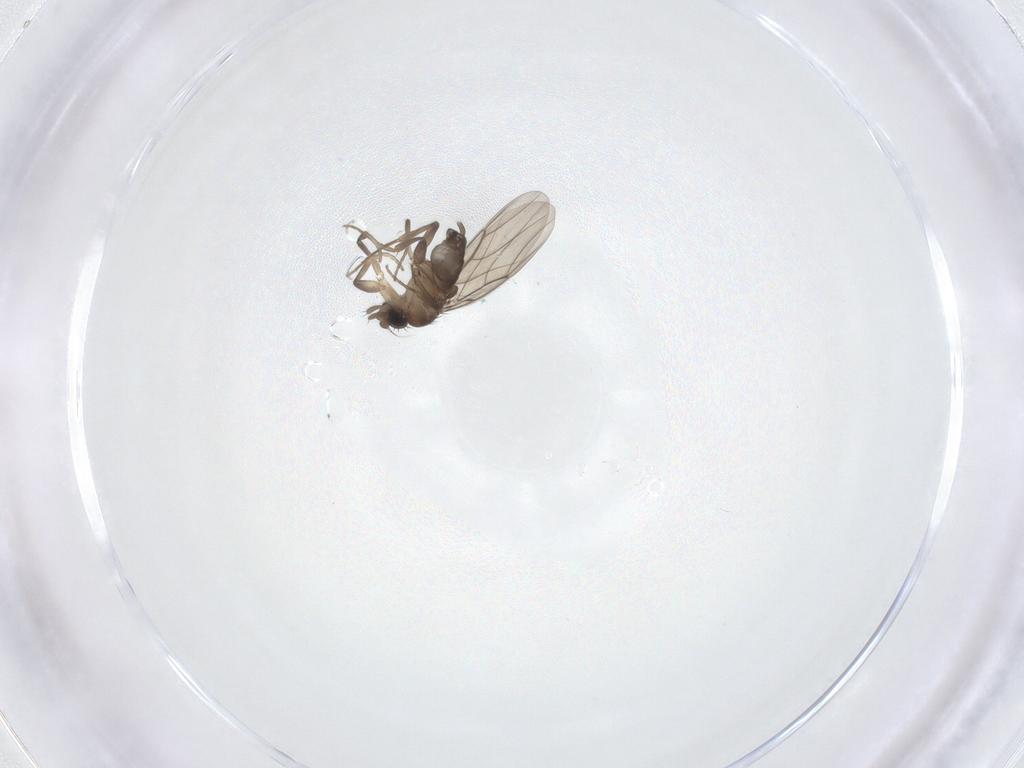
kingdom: Animalia
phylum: Arthropoda
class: Insecta
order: Diptera
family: Phoridae
